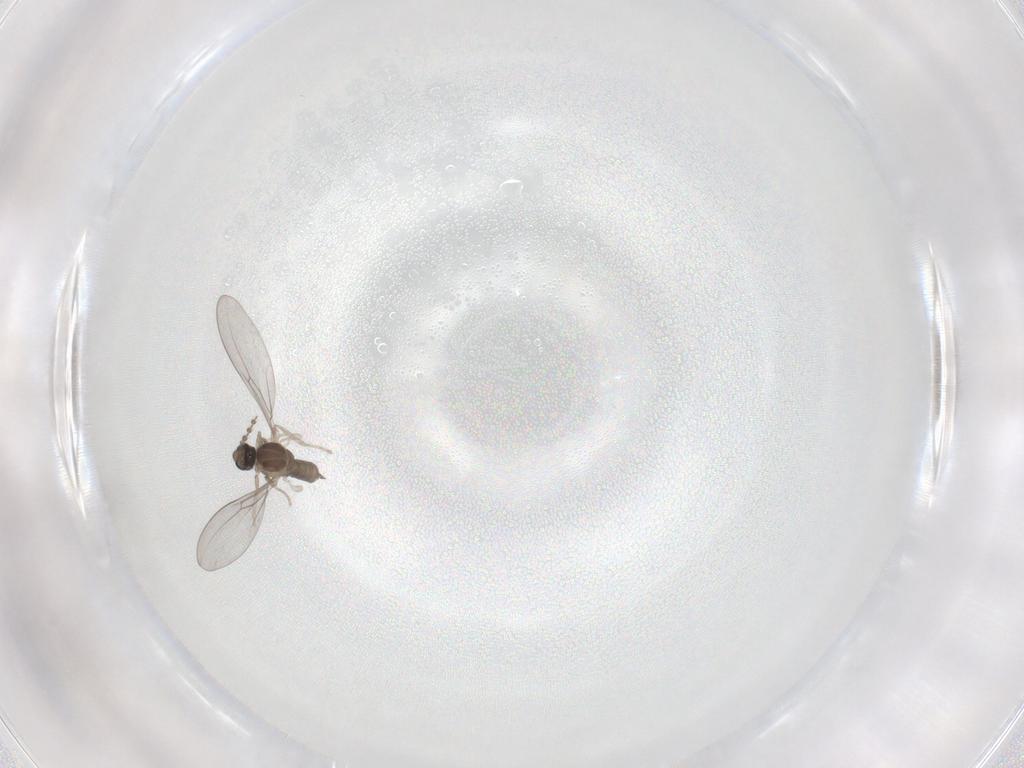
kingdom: Animalia
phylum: Arthropoda
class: Insecta
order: Diptera
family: Cecidomyiidae
